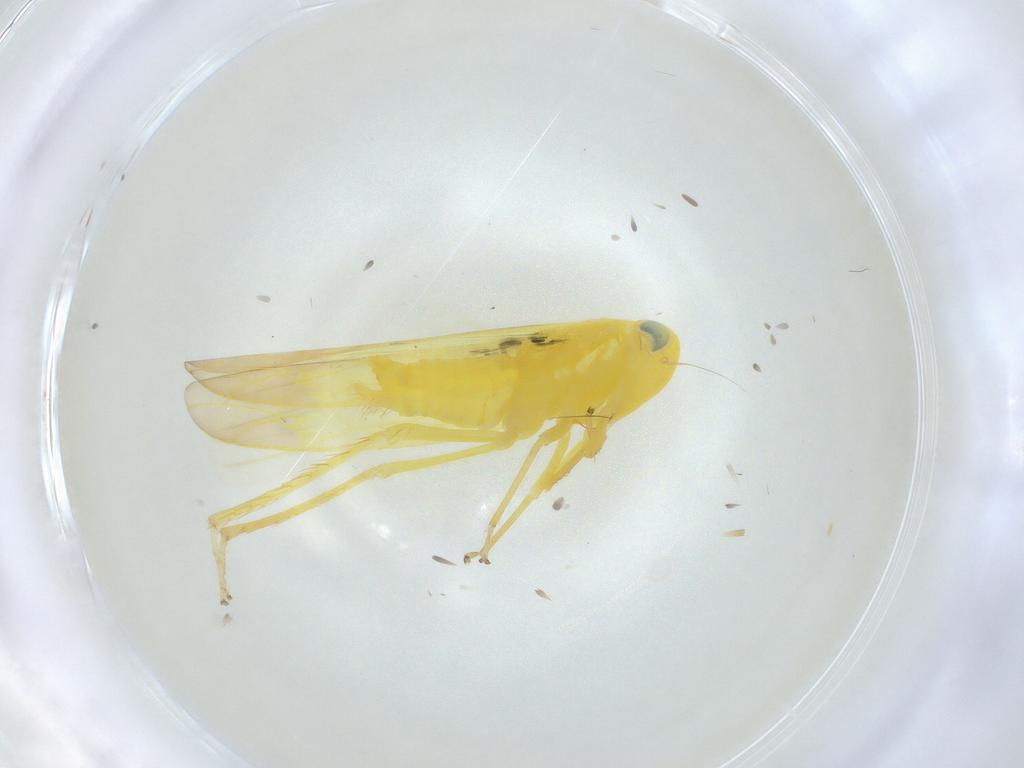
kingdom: Animalia
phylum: Arthropoda
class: Insecta
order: Hemiptera
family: Cicadellidae
